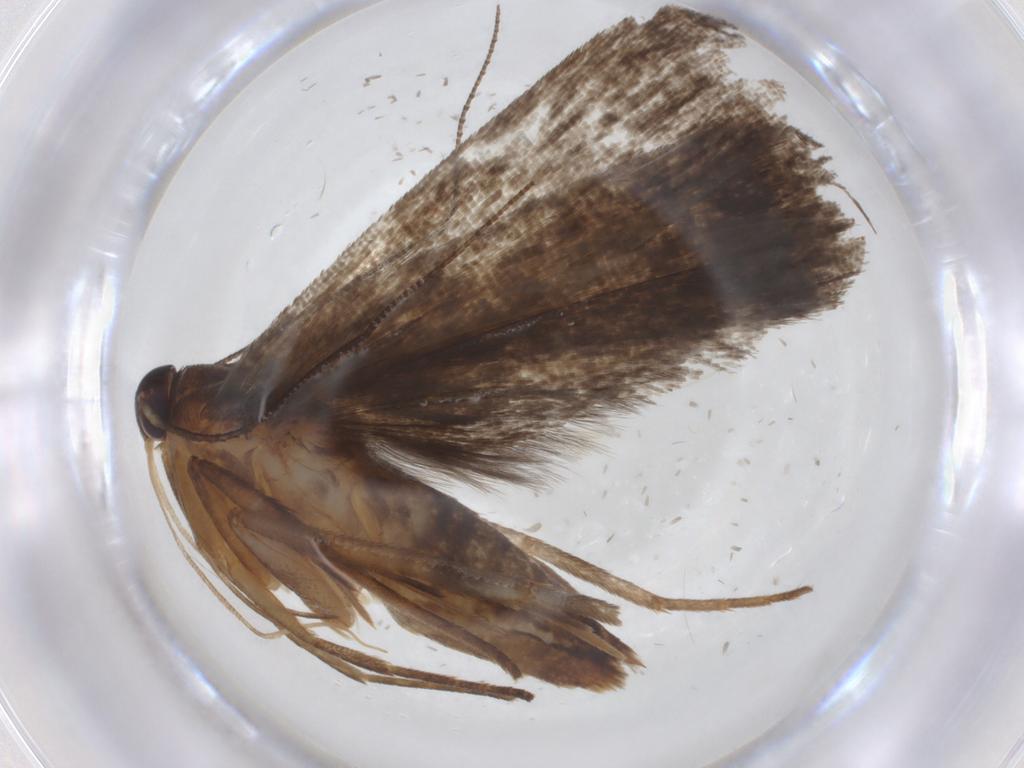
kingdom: Animalia
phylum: Arthropoda
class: Insecta
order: Lepidoptera
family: Gelechiidae
